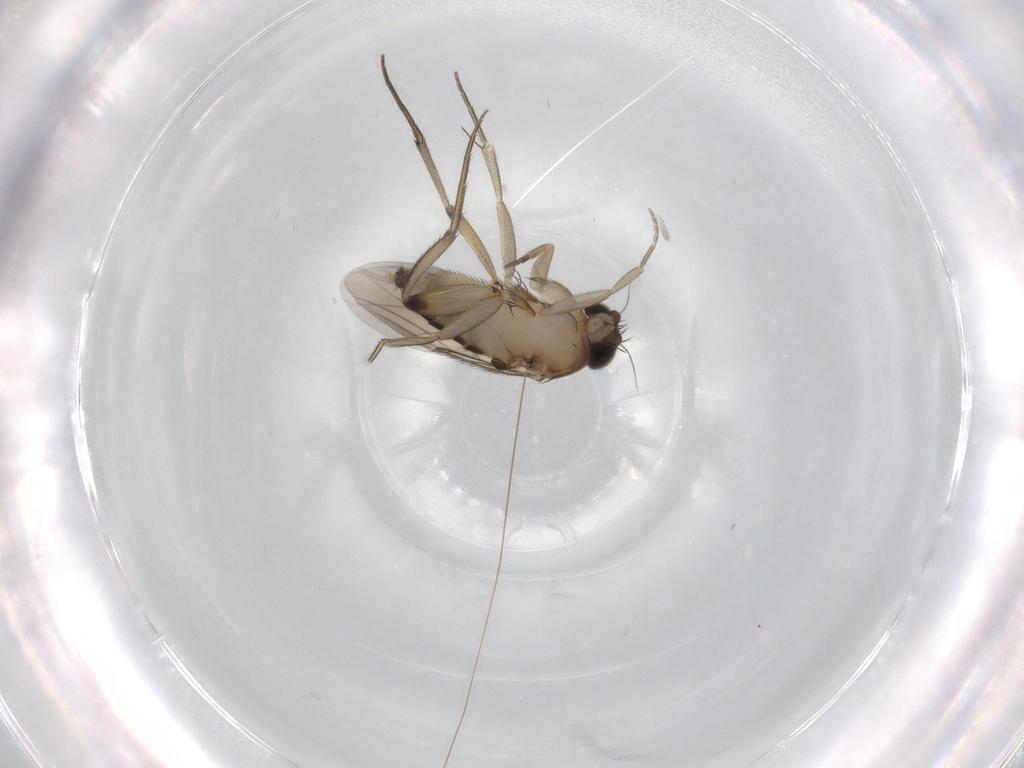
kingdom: Animalia
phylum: Arthropoda
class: Insecta
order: Diptera
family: Phoridae
